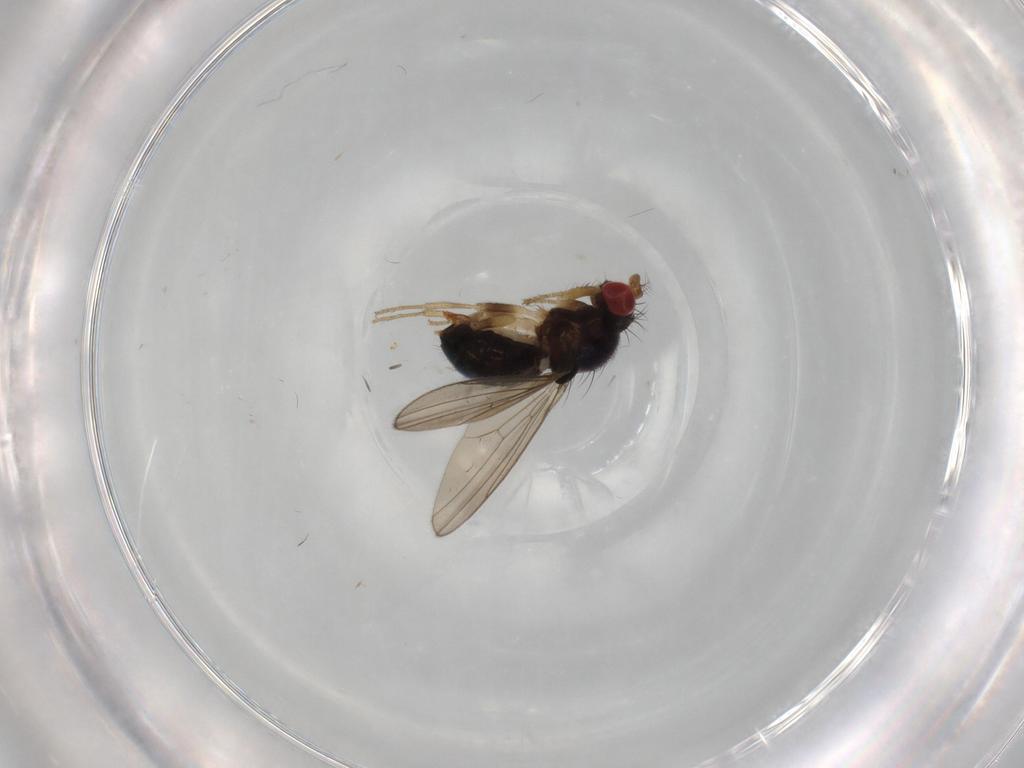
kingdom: Animalia
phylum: Arthropoda
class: Insecta
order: Diptera
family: Drosophilidae
